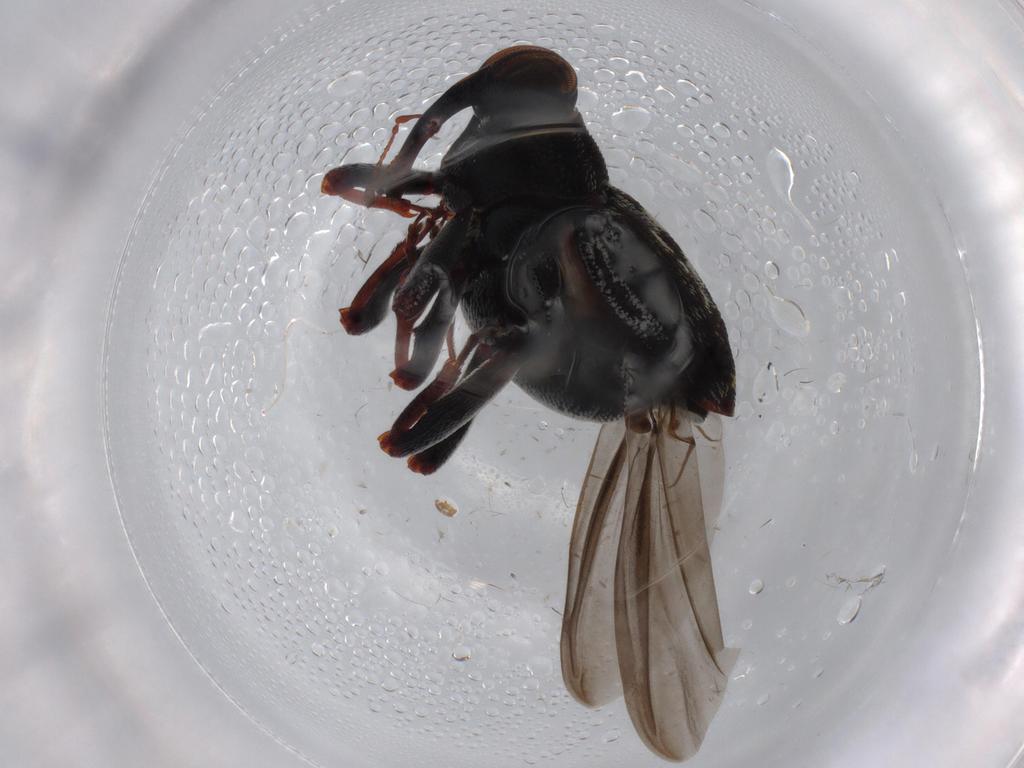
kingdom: Animalia
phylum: Arthropoda
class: Insecta
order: Coleoptera
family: Coccinellidae
